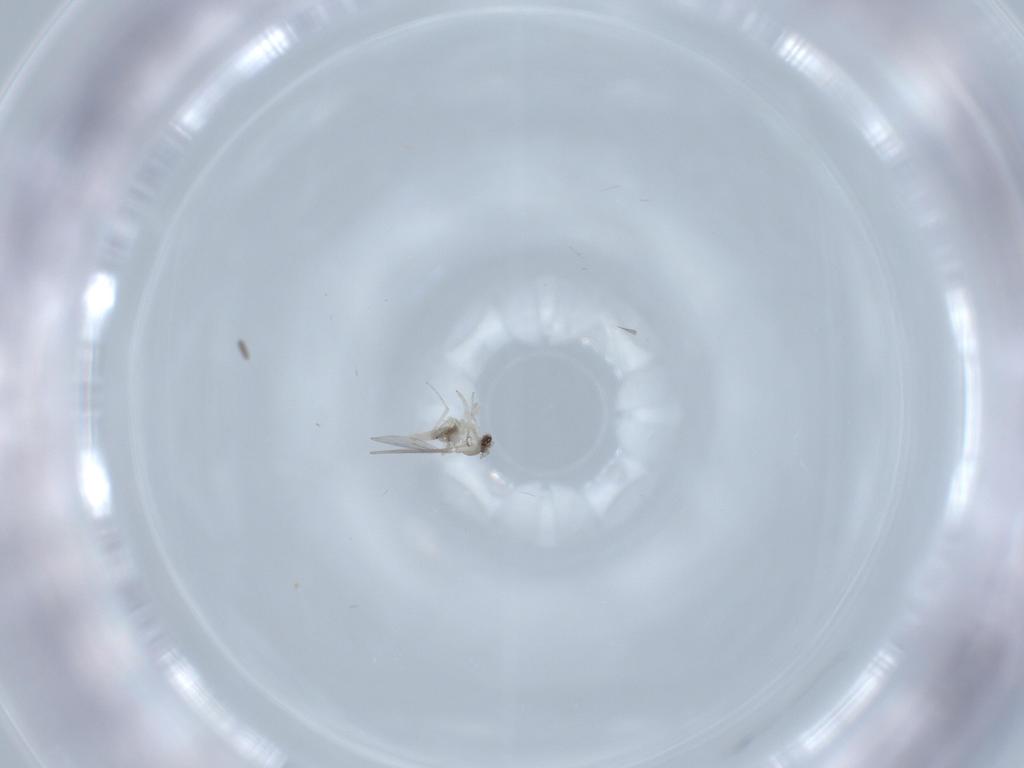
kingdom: Animalia
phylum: Arthropoda
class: Insecta
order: Diptera
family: Cecidomyiidae
